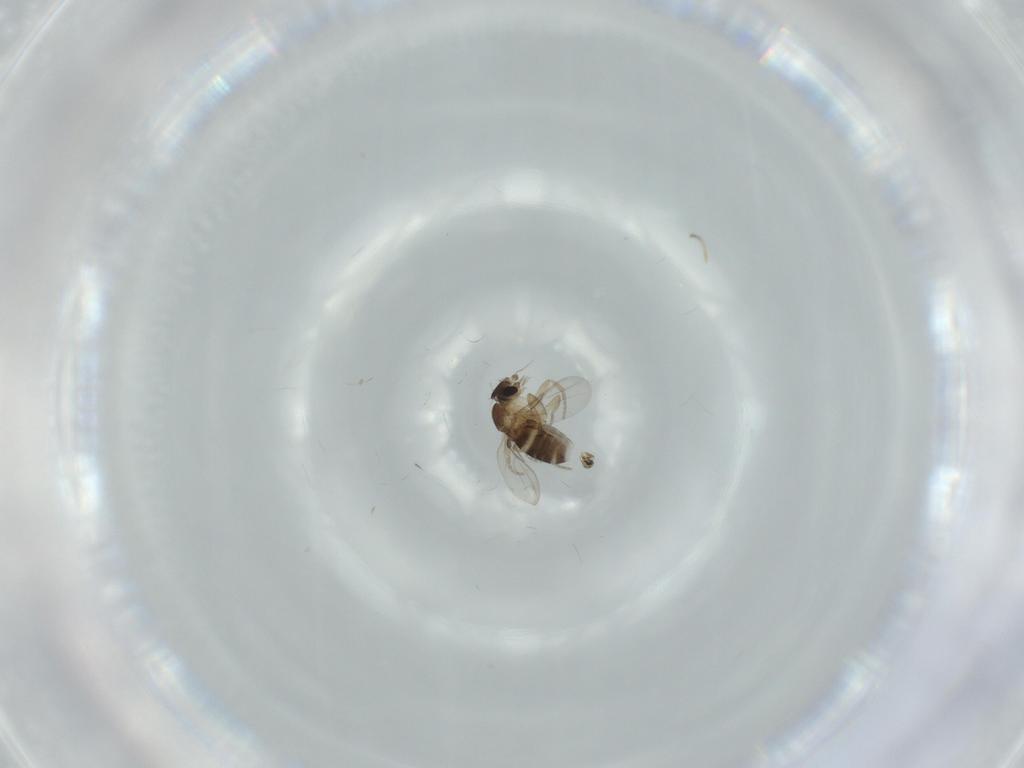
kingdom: Animalia
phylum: Arthropoda
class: Insecta
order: Diptera
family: Phoridae
